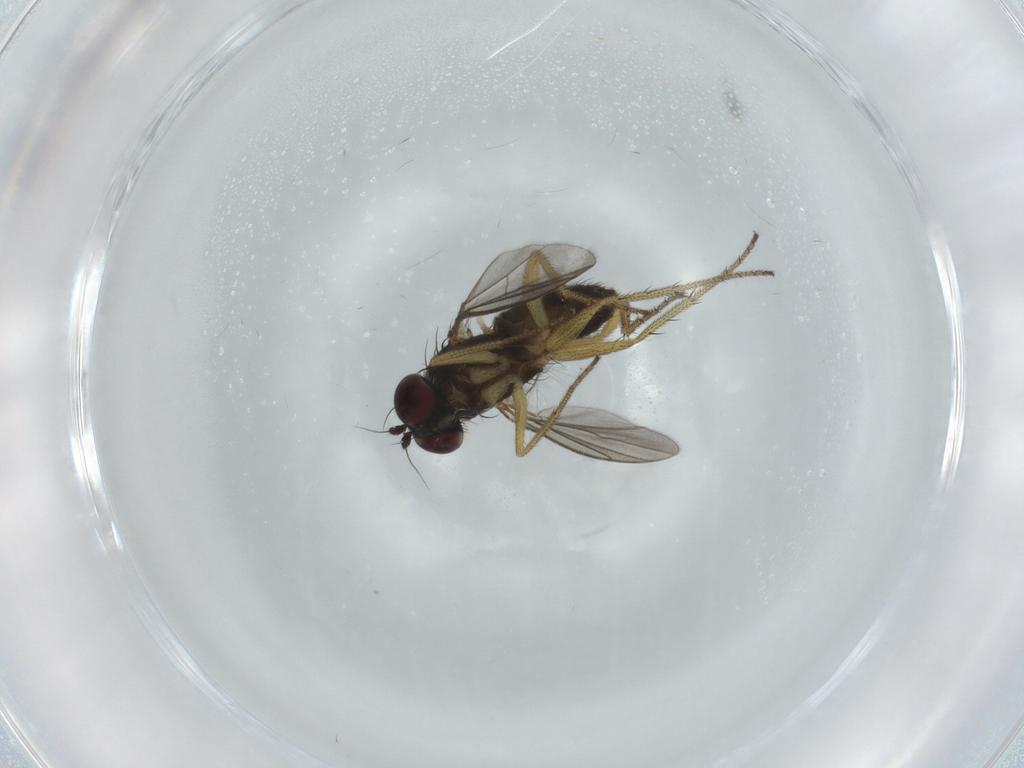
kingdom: Animalia
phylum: Arthropoda
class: Insecta
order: Diptera
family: Dolichopodidae
